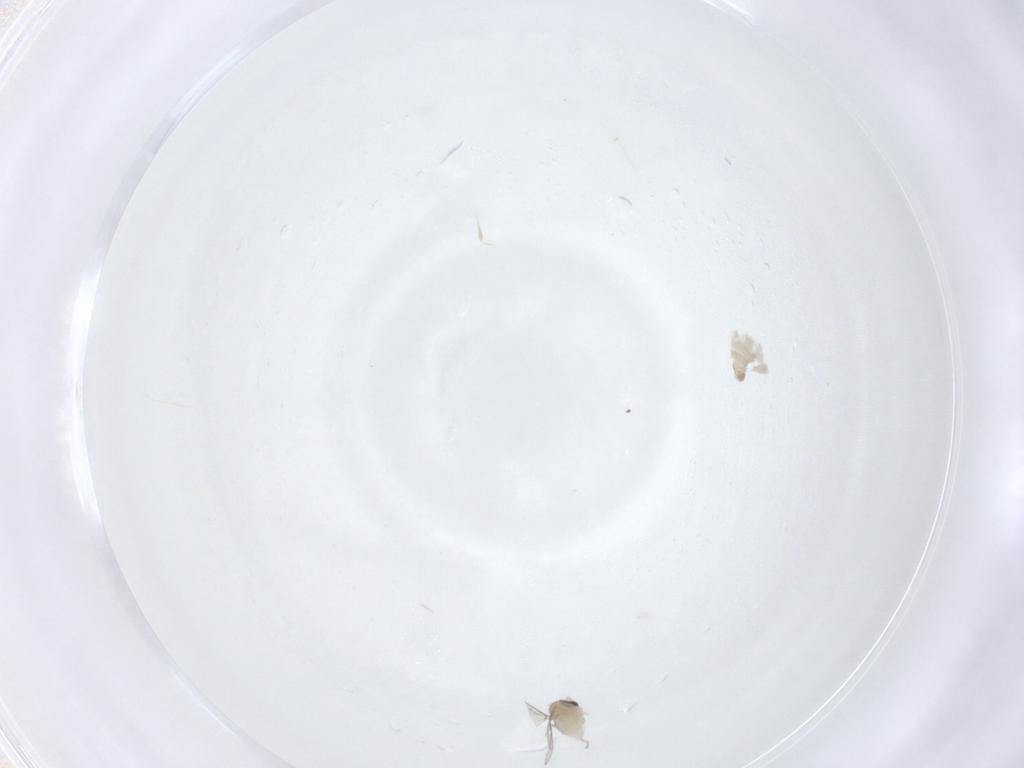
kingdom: Animalia
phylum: Arthropoda
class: Insecta
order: Diptera
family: Cecidomyiidae
